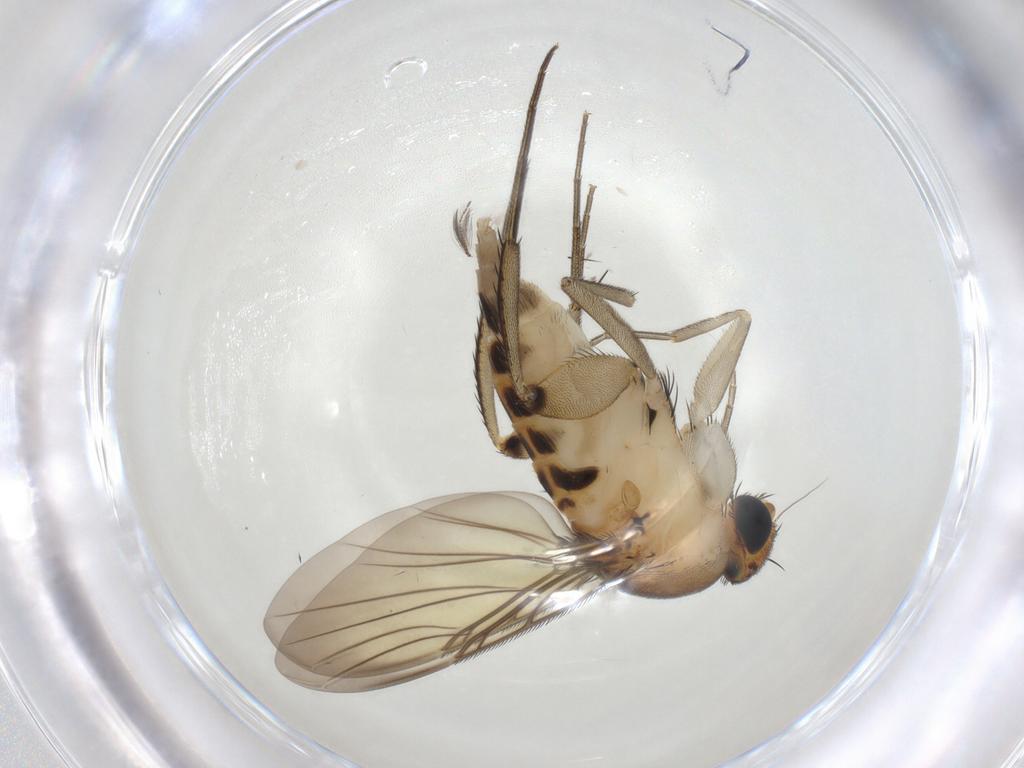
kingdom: Animalia
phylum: Arthropoda
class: Insecta
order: Diptera
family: Phoridae
